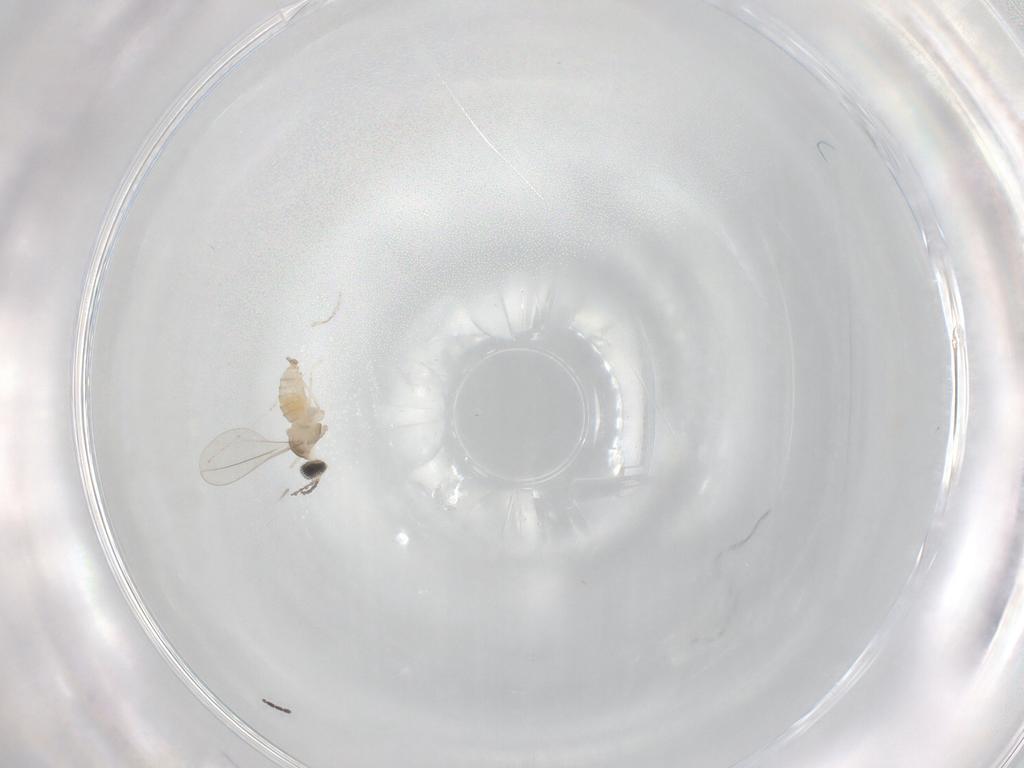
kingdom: Animalia
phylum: Arthropoda
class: Insecta
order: Diptera
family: Cecidomyiidae
